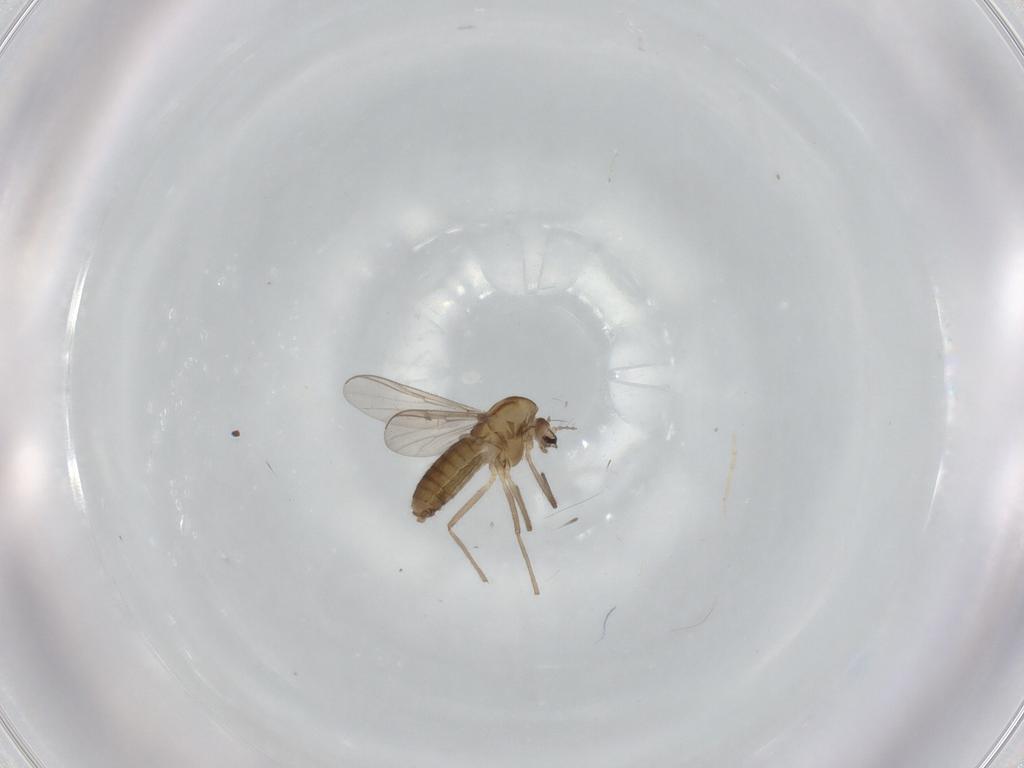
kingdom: Animalia
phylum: Arthropoda
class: Insecta
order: Diptera
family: Chironomidae
